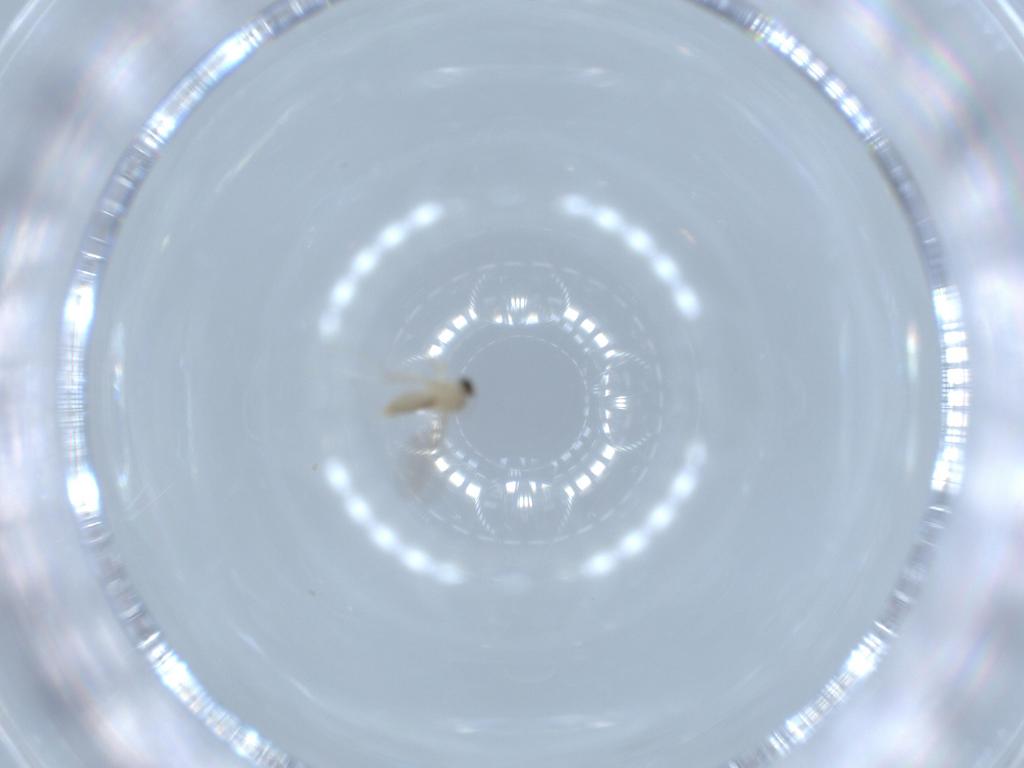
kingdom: Animalia
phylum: Arthropoda
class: Insecta
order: Diptera
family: Cecidomyiidae
